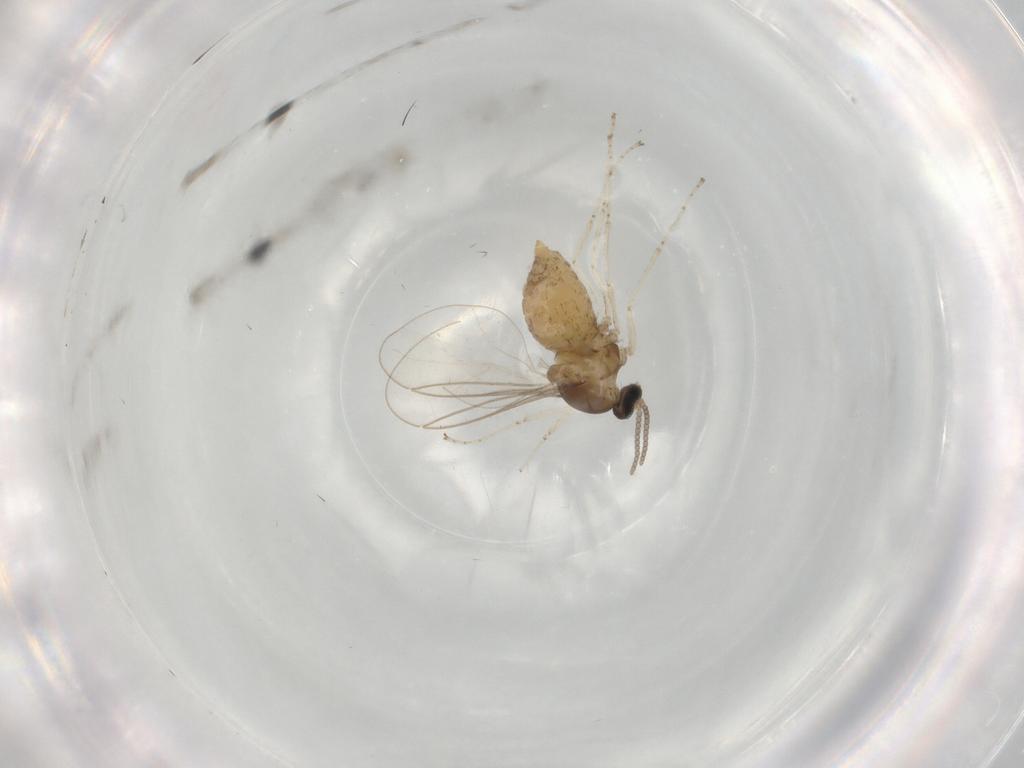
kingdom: Animalia
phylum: Arthropoda
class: Insecta
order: Diptera
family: Cecidomyiidae
